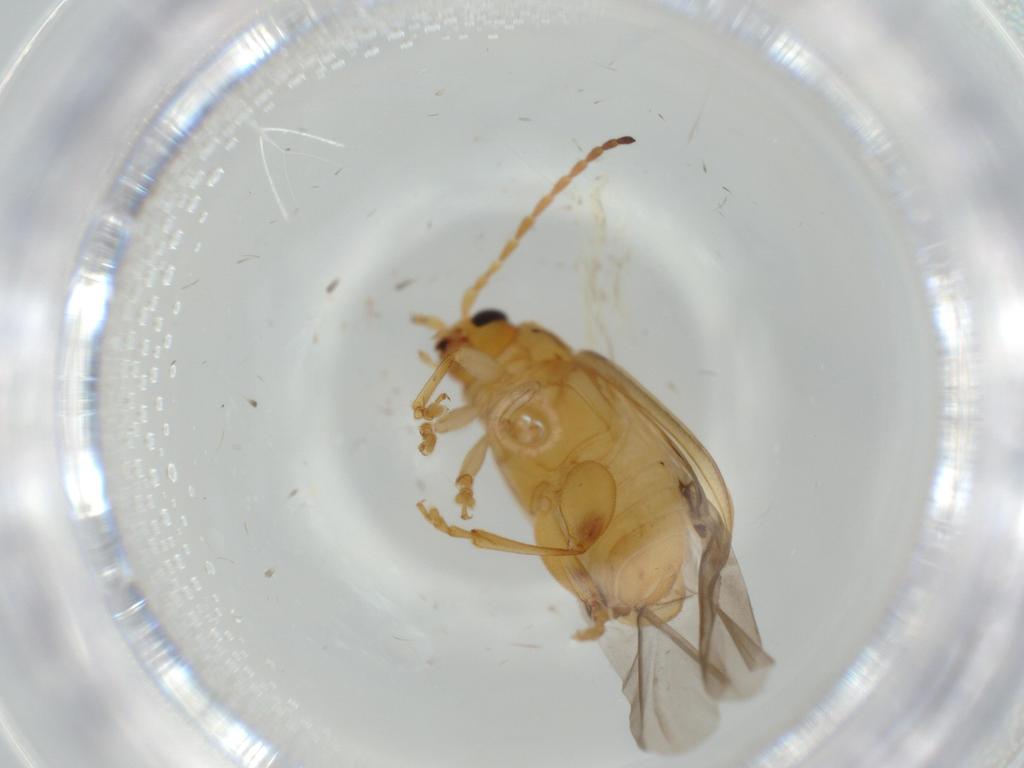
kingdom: Animalia
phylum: Arthropoda
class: Insecta
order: Coleoptera
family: Chrysomelidae
